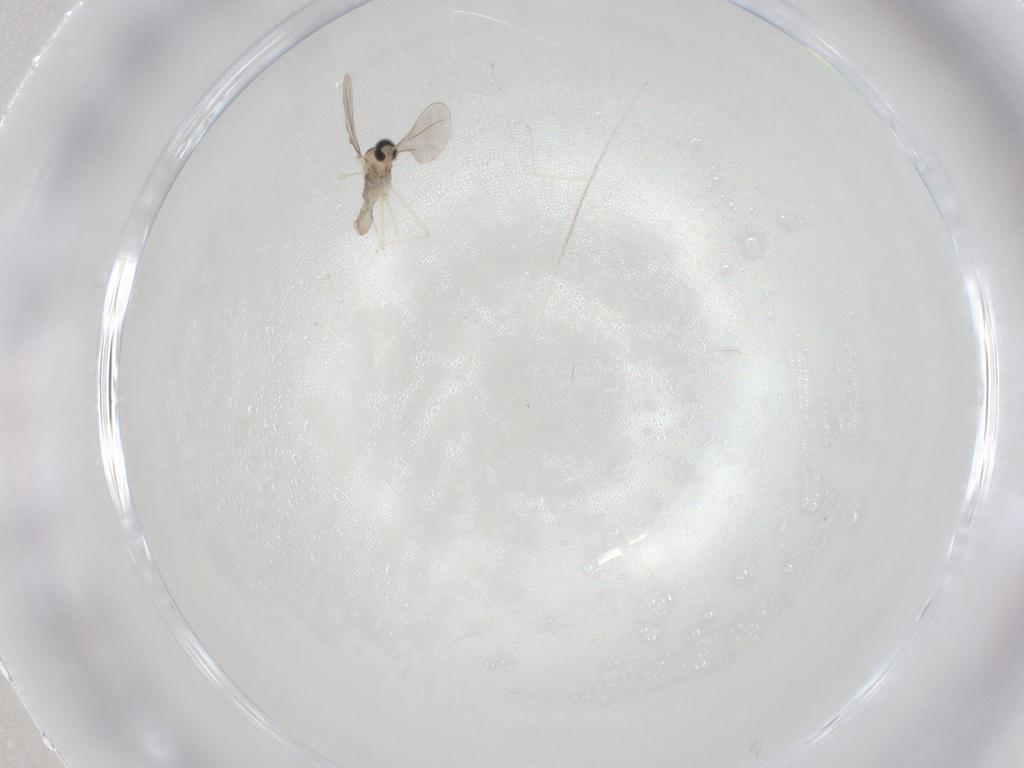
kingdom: Animalia
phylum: Arthropoda
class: Insecta
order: Diptera
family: Cecidomyiidae
